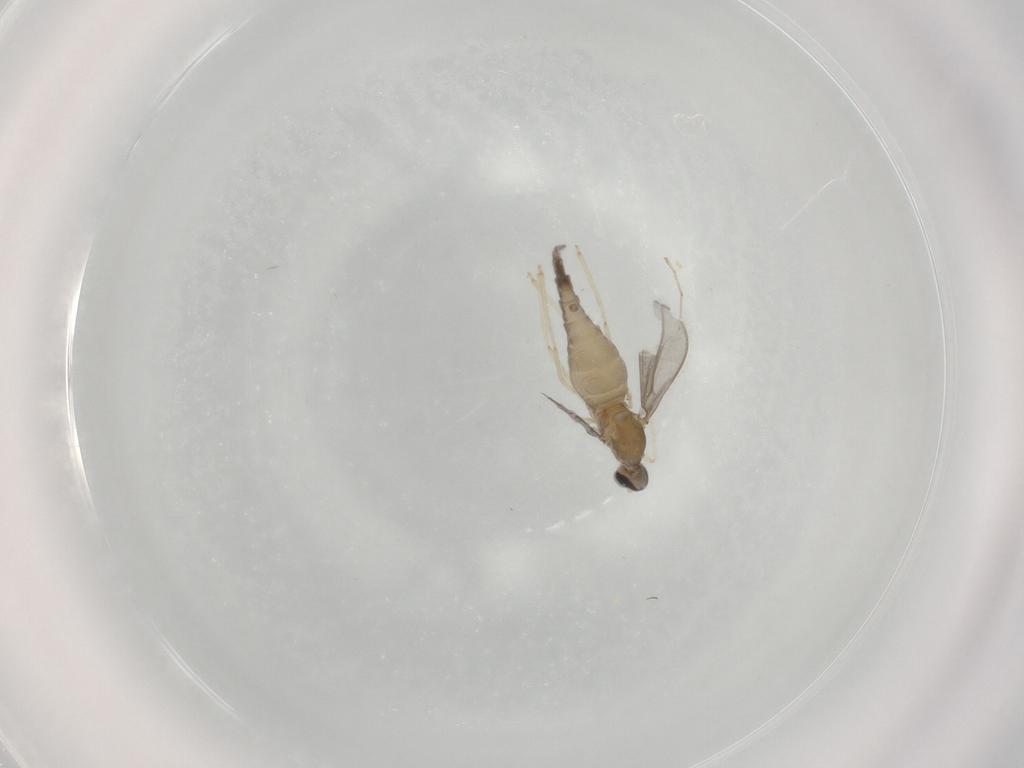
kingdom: Animalia
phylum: Arthropoda
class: Insecta
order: Diptera
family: Cecidomyiidae
